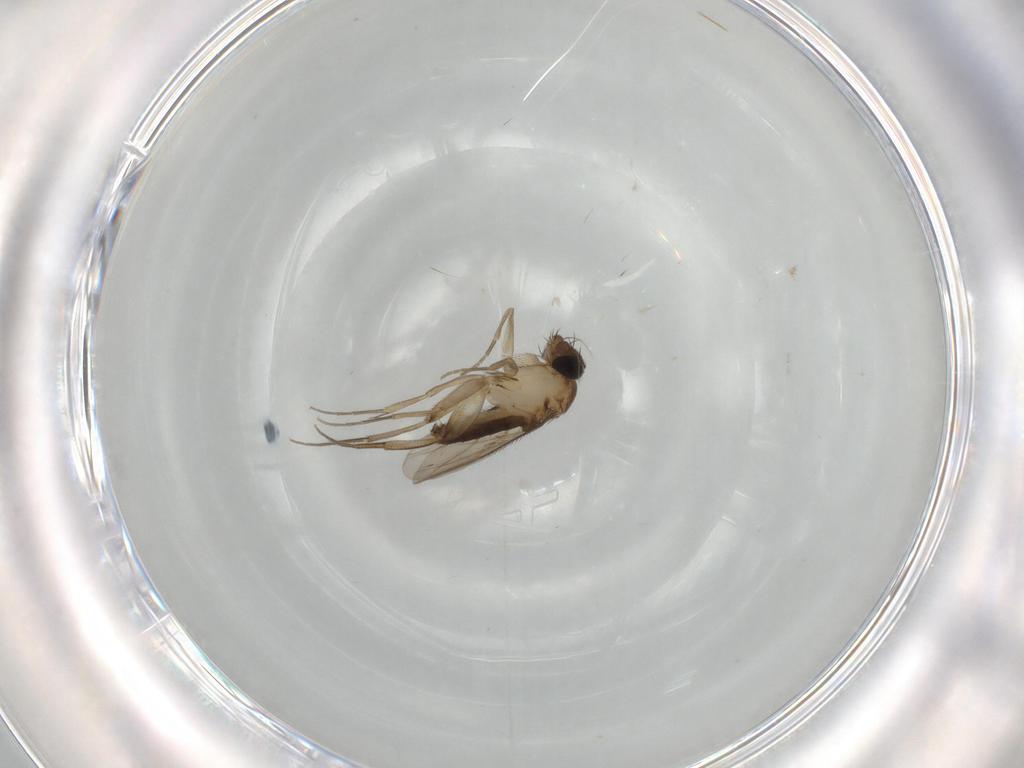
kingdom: Animalia
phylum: Arthropoda
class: Insecta
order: Diptera
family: Phoridae
